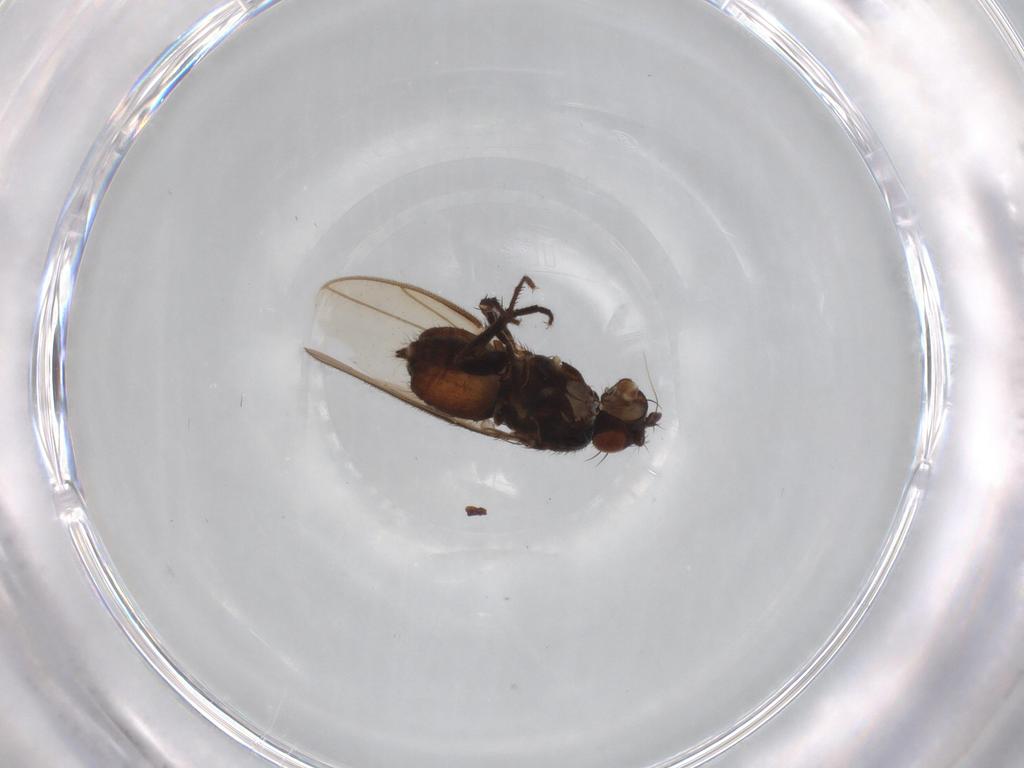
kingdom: Animalia
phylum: Arthropoda
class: Insecta
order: Diptera
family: Sphaeroceridae
